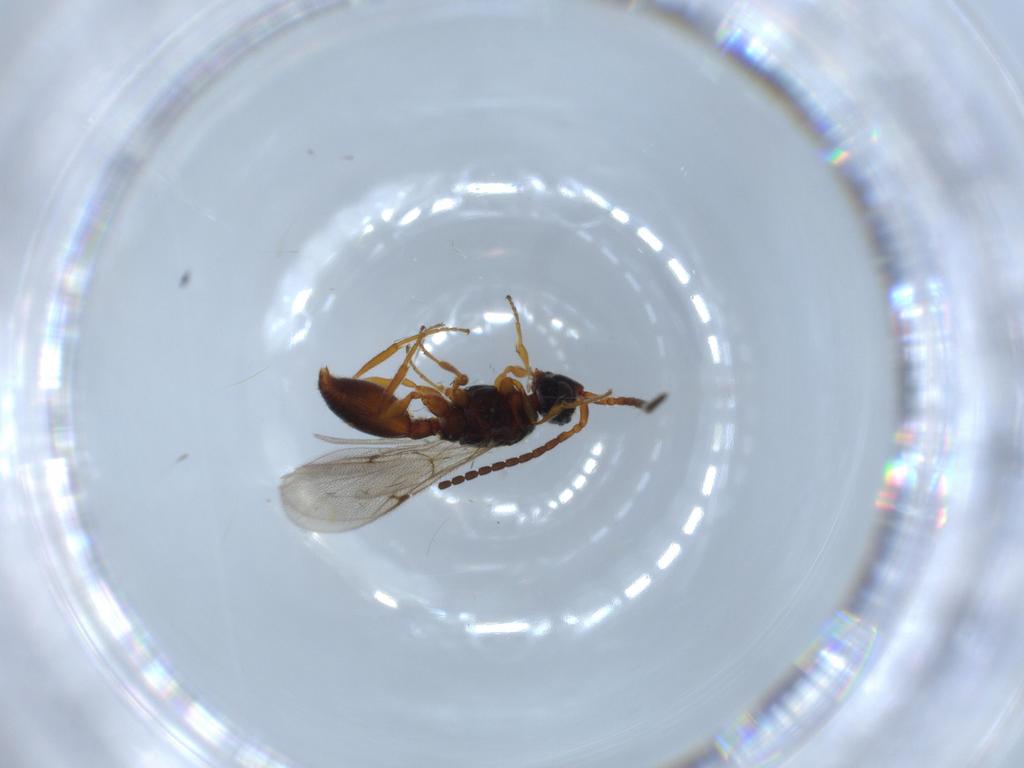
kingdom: Animalia
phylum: Arthropoda
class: Insecta
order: Hymenoptera
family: Diapriidae
